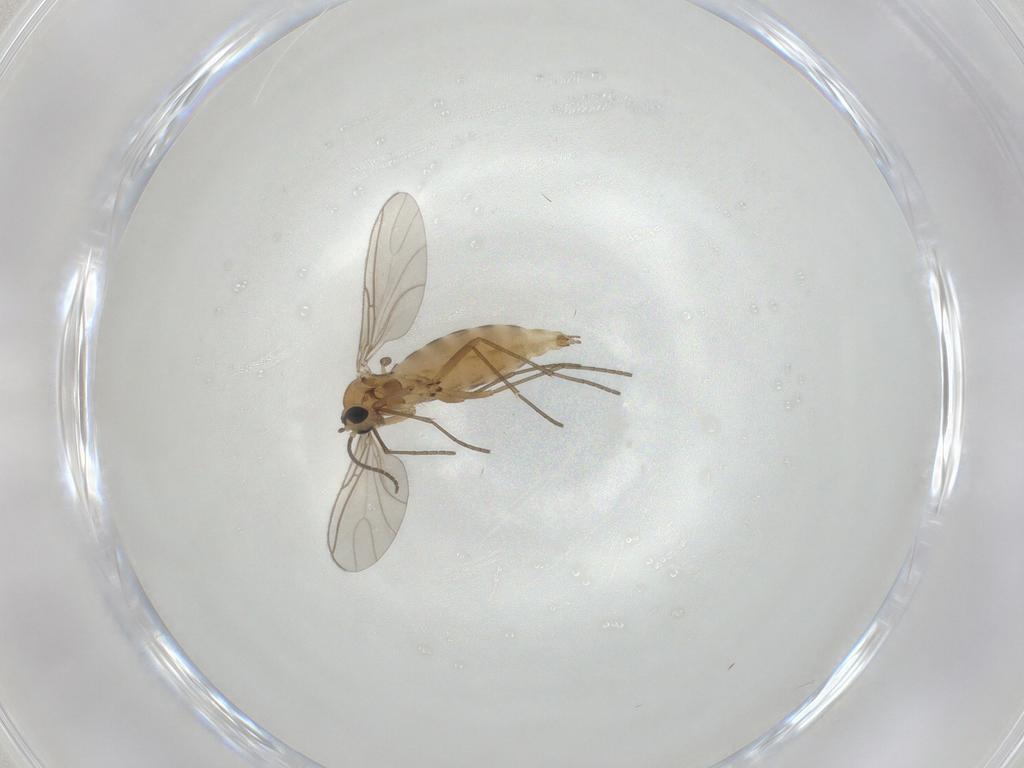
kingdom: Animalia
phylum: Arthropoda
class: Insecta
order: Diptera
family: Sciaridae
